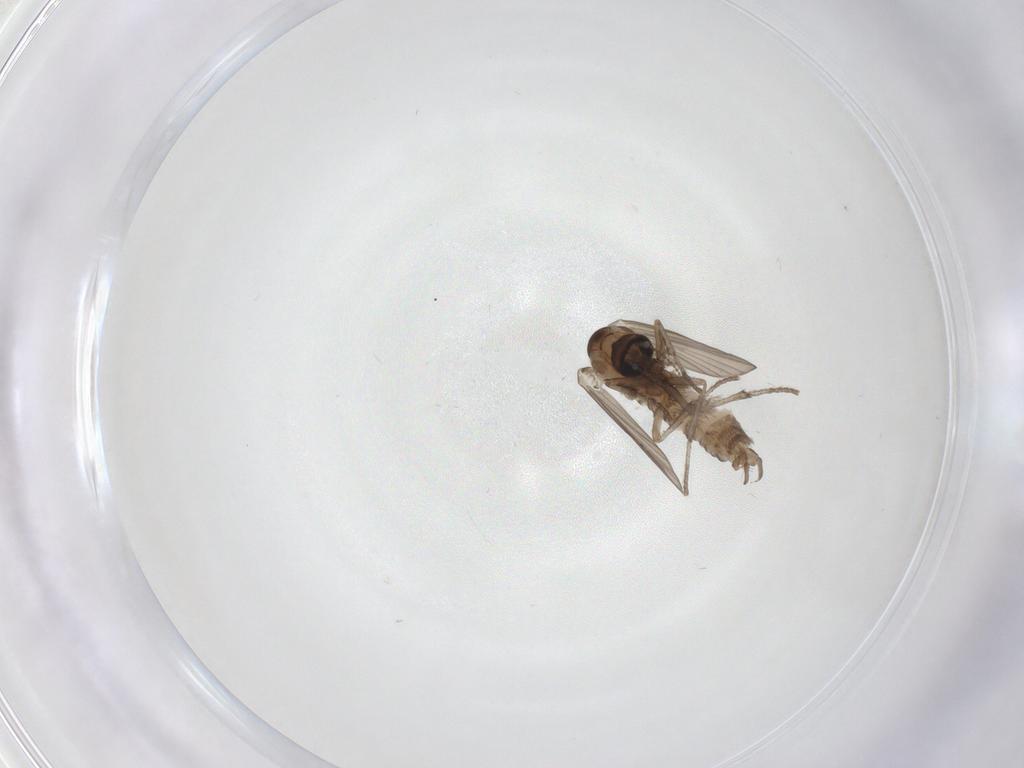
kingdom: Animalia
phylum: Arthropoda
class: Insecta
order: Diptera
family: Psychodidae
